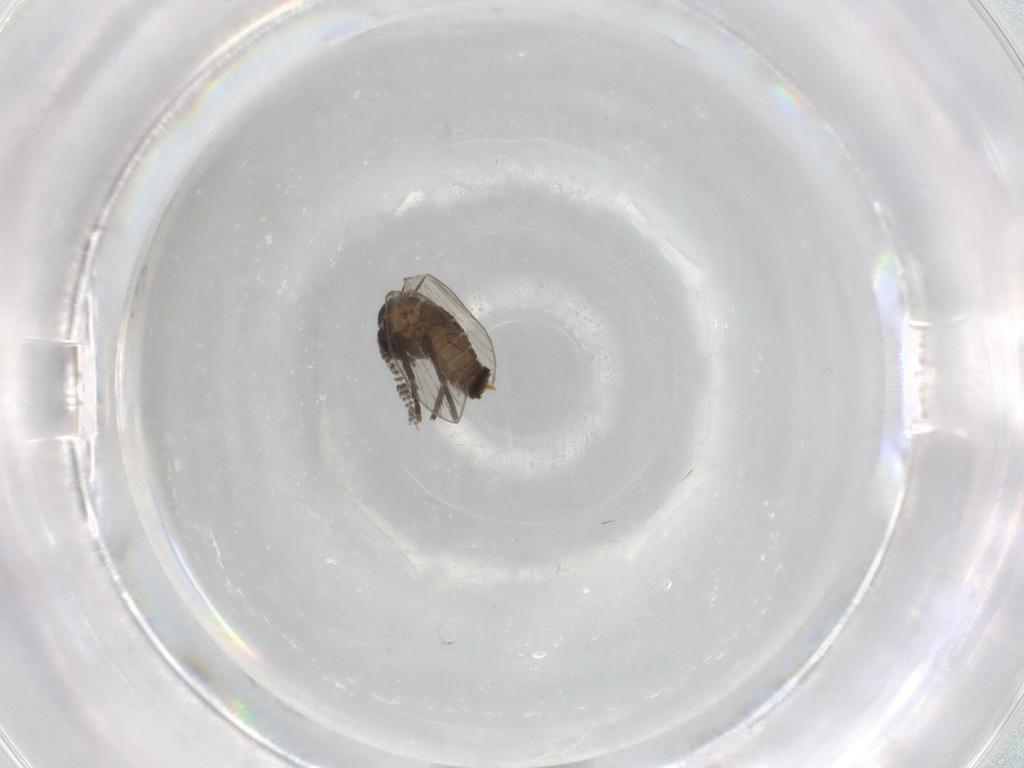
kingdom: Animalia
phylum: Arthropoda
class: Insecta
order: Diptera
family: Psychodidae
